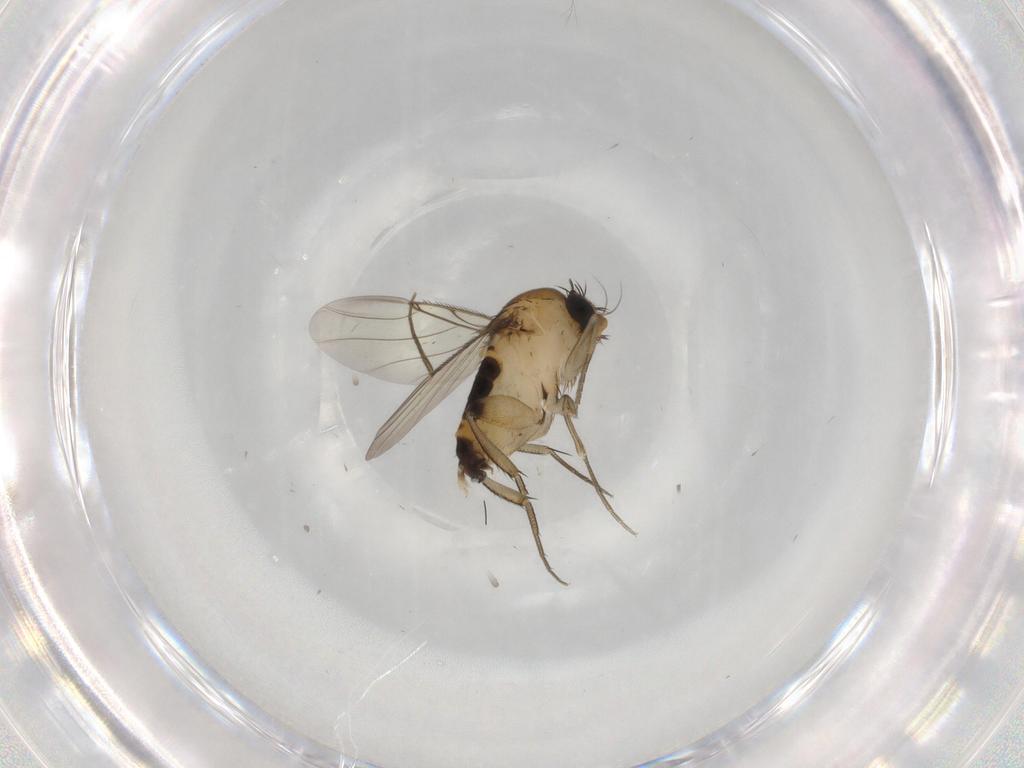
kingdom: Animalia
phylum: Arthropoda
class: Insecta
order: Diptera
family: Phoridae
